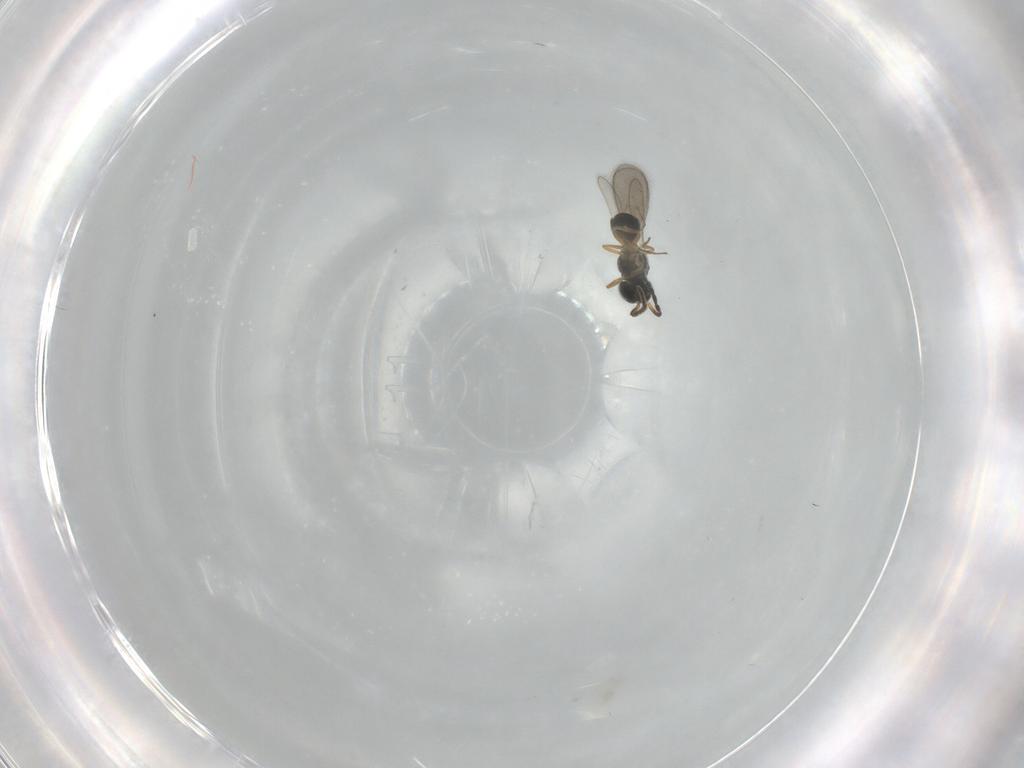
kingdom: Animalia
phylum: Arthropoda
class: Insecta
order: Hymenoptera
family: Scelionidae
